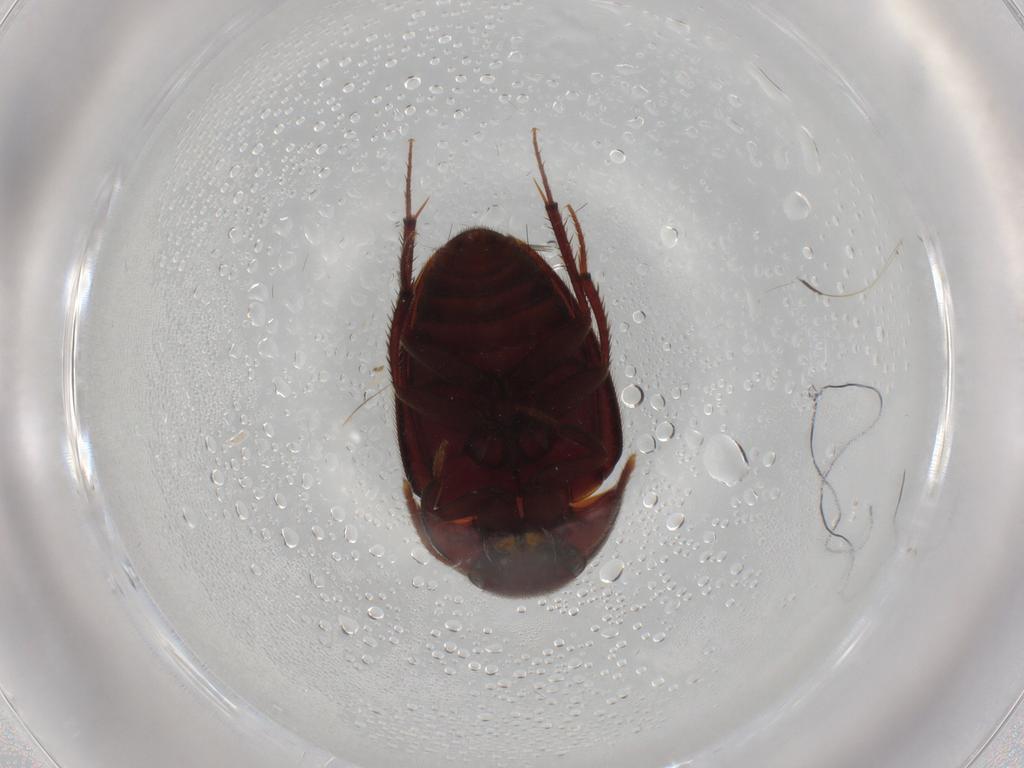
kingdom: Animalia
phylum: Arthropoda
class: Insecta
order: Coleoptera
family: Leiodidae
